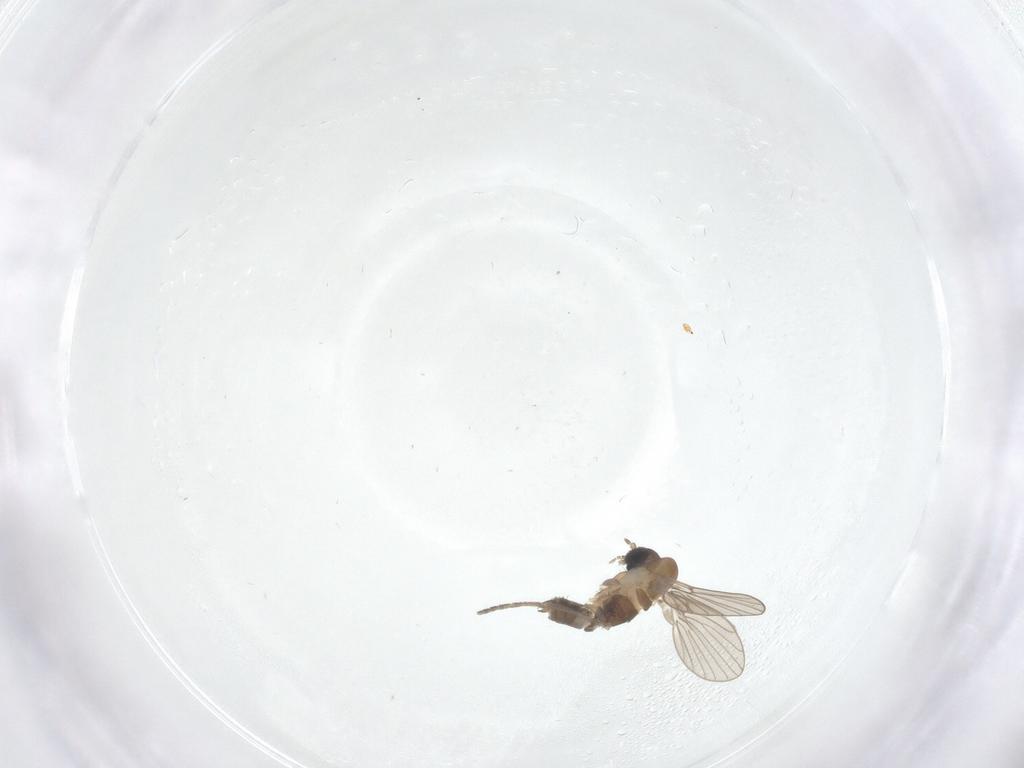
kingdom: Animalia
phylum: Arthropoda
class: Insecta
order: Diptera
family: Psychodidae
